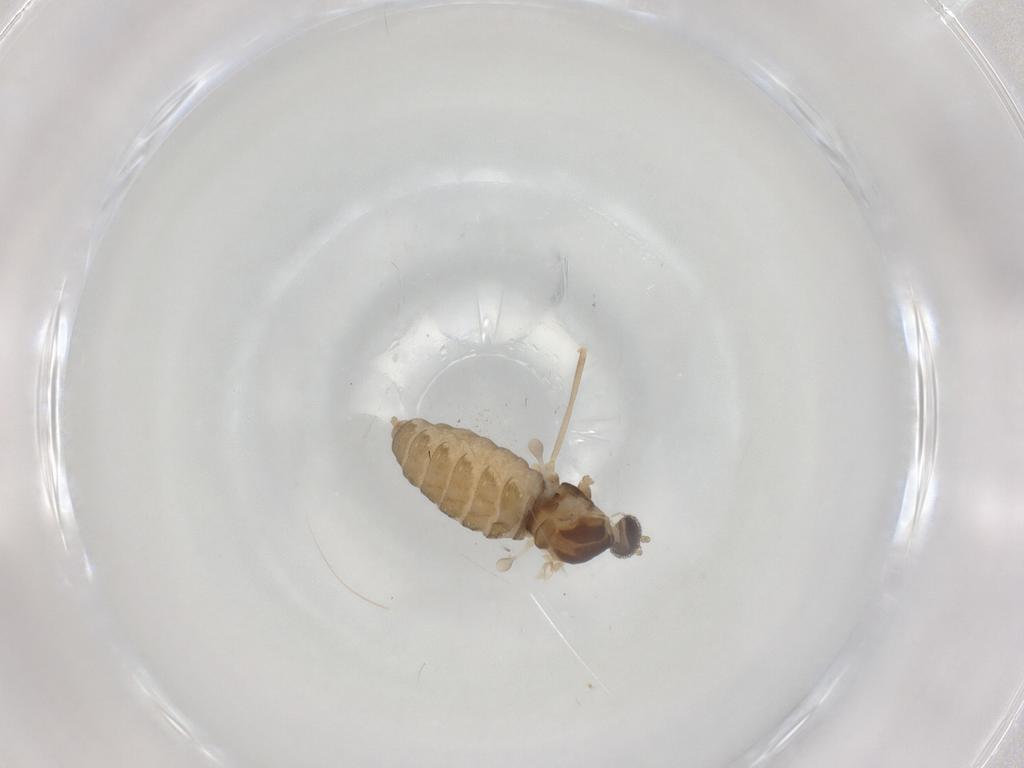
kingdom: Animalia
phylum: Arthropoda
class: Insecta
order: Diptera
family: Cecidomyiidae
